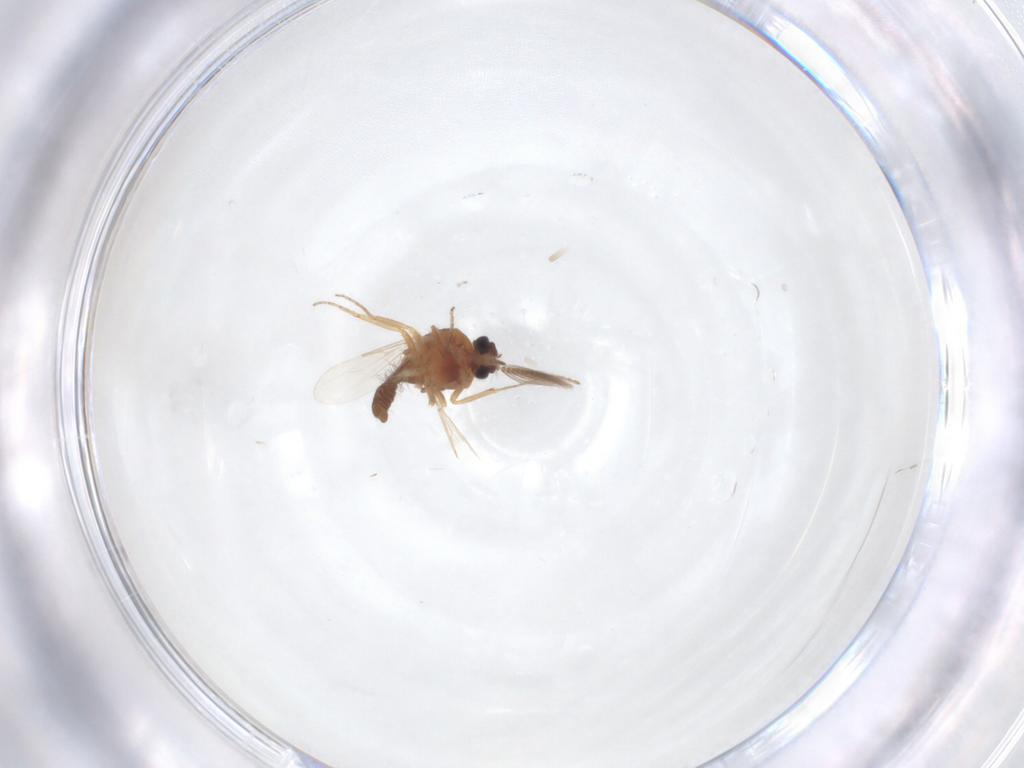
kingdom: Animalia
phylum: Arthropoda
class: Insecta
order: Diptera
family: Ceratopogonidae
